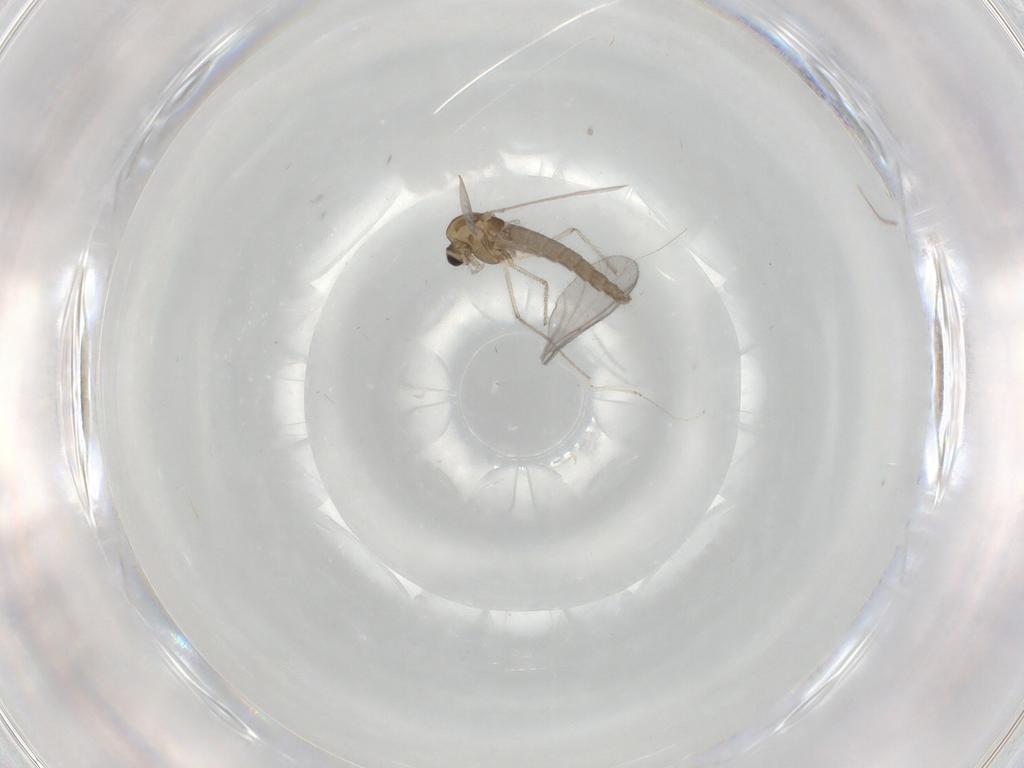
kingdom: Animalia
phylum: Arthropoda
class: Insecta
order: Diptera
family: Chironomidae
